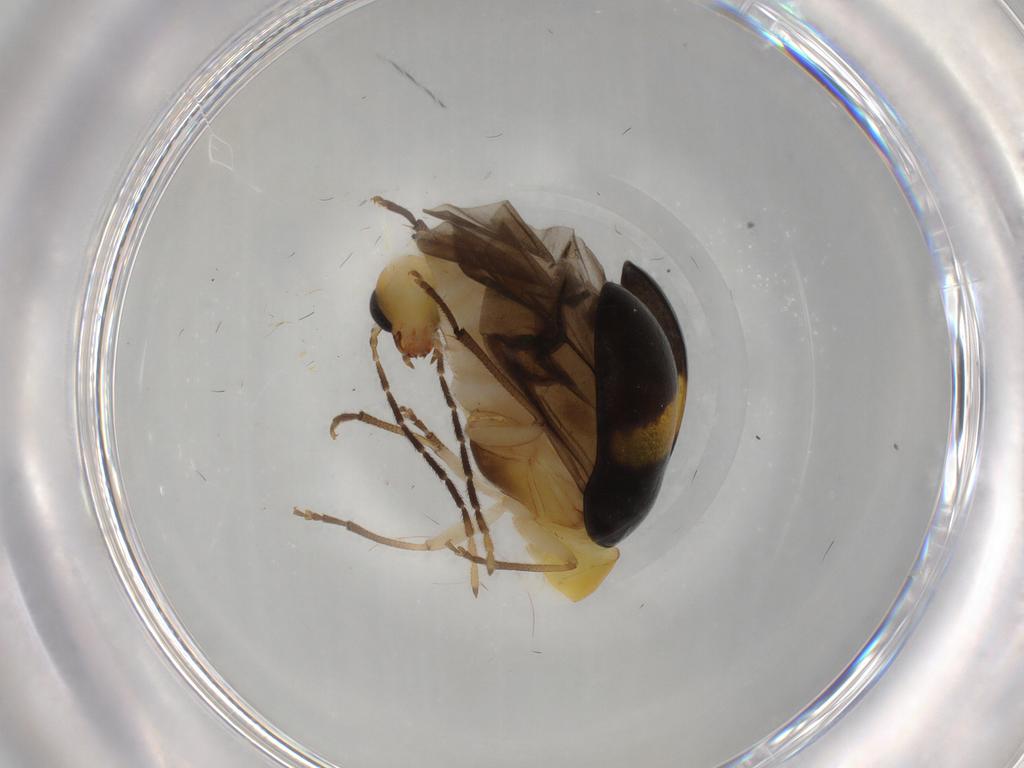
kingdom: Animalia
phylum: Arthropoda
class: Insecta
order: Coleoptera
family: Chrysomelidae
